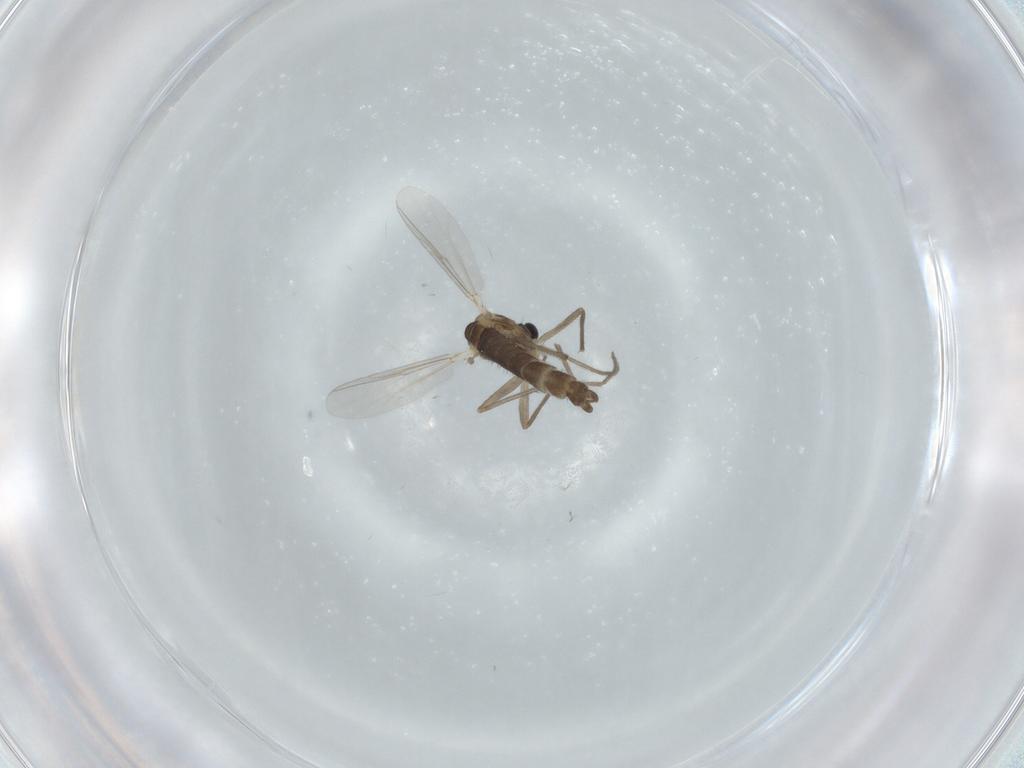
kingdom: Animalia
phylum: Arthropoda
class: Insecta
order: Diptera
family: Chironomidae
